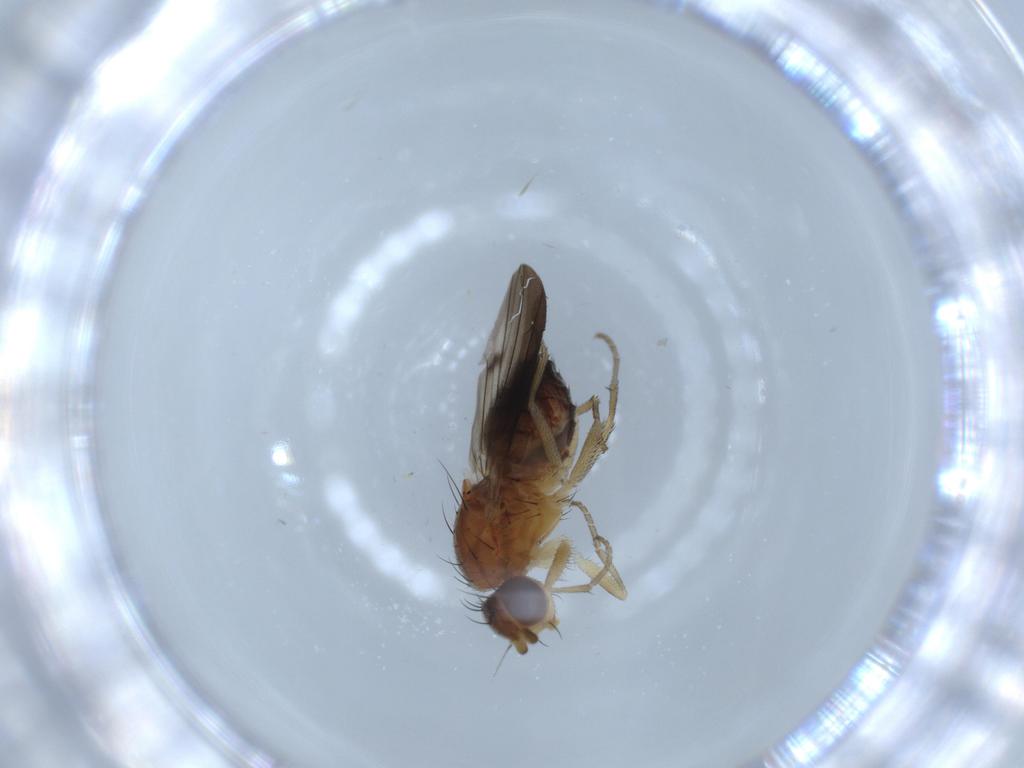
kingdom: Animalia
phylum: Arthropoda
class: Insecta
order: Diptera
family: Heleomyzidae
